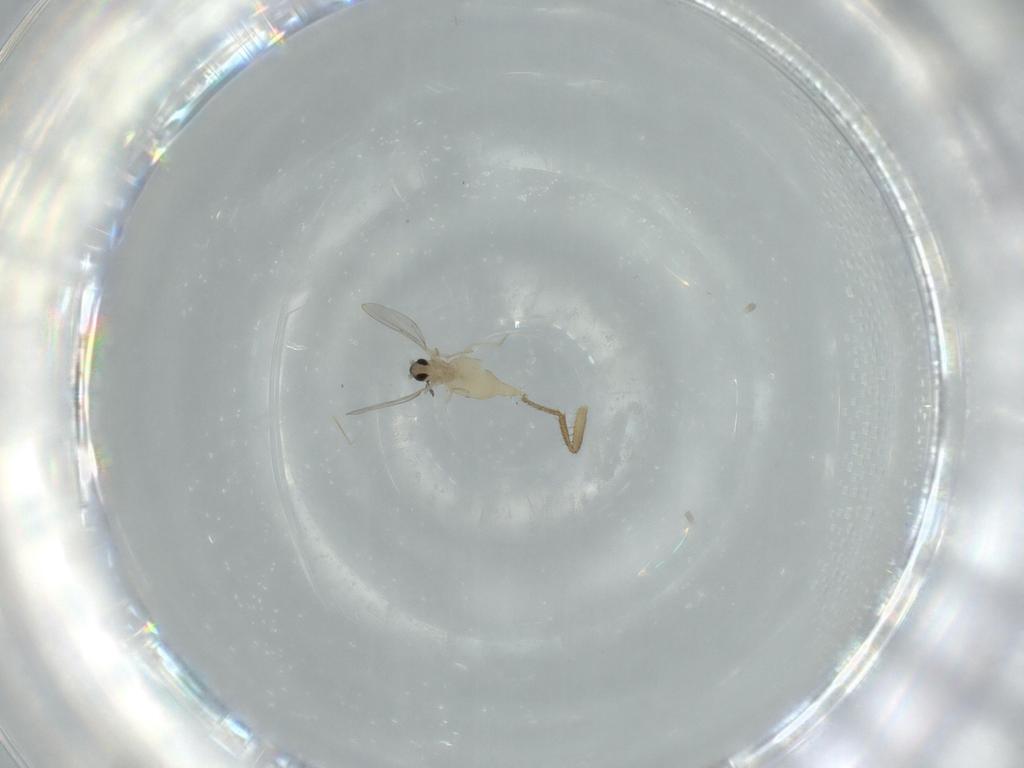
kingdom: Animalia
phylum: Arthropoda
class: Insecta
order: Diptera
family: Cecidomyiidae
